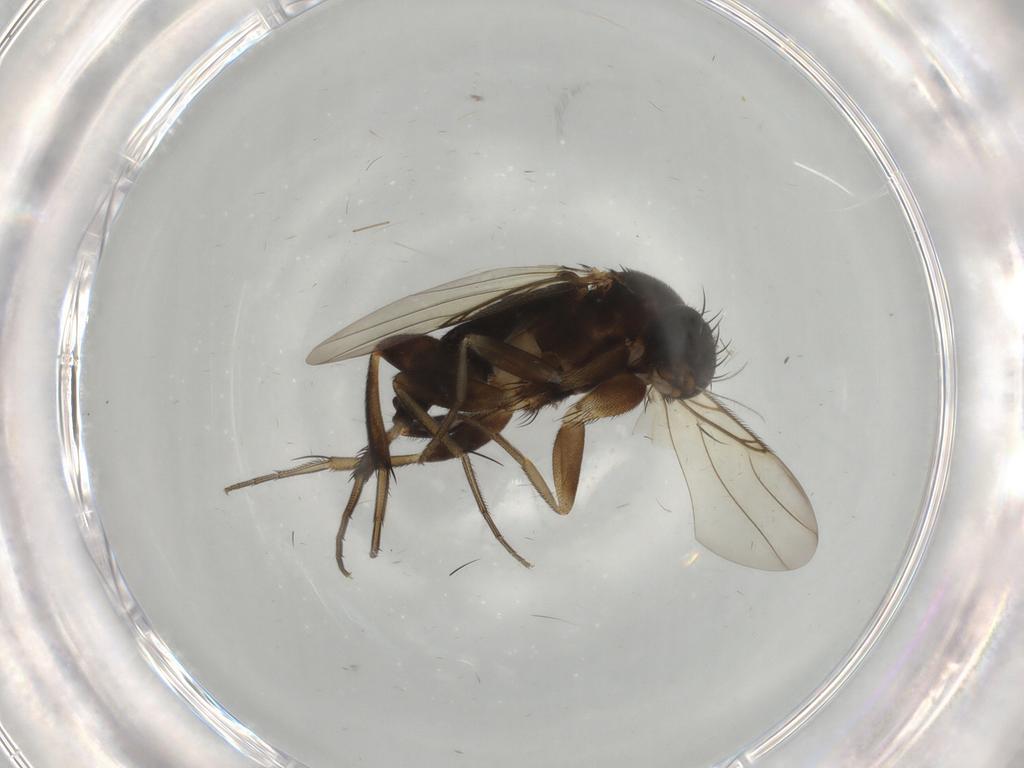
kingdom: Animalia
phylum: Arthropoda
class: Insecta
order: Diptera
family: Phoridae
